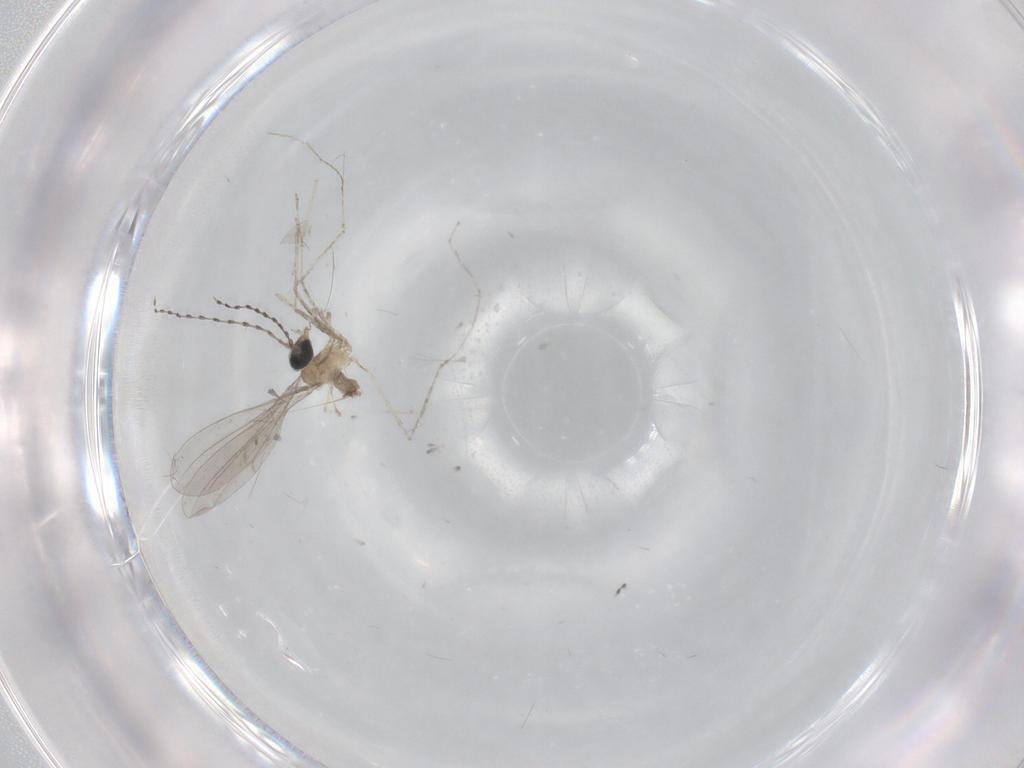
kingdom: Animalia
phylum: Arthropoda
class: Insecta
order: Diptera
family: Cecidomyiidae
